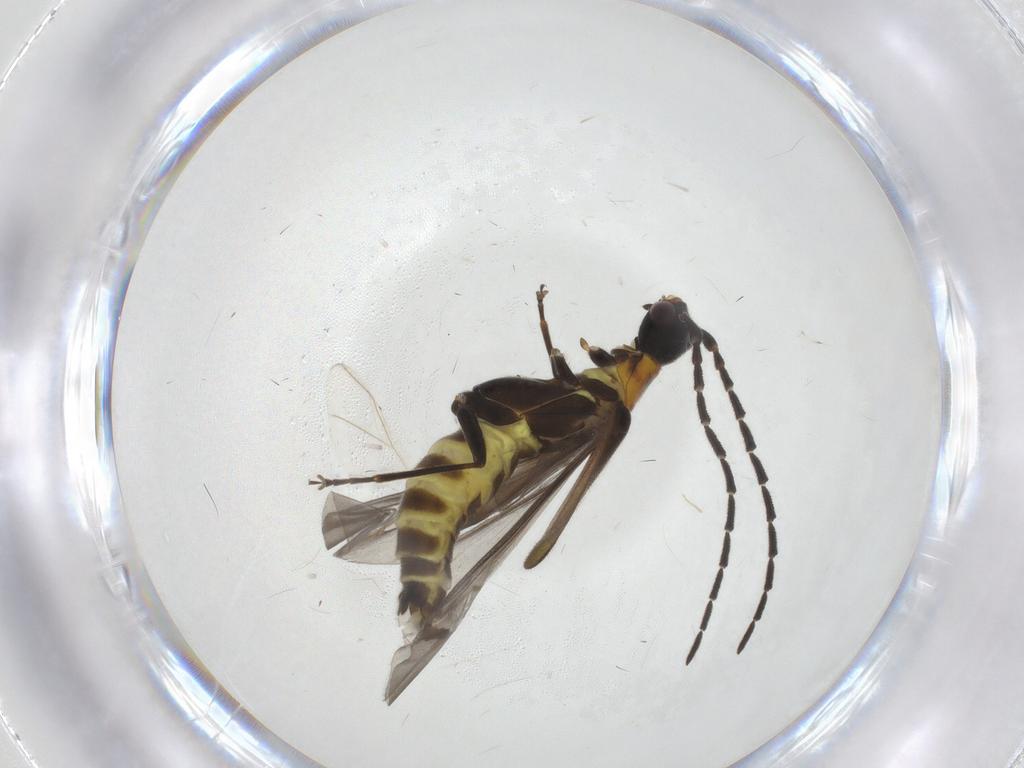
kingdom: Animalia
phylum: Arthropoda
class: Insecta
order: Coleoptera
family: Cantharidae
